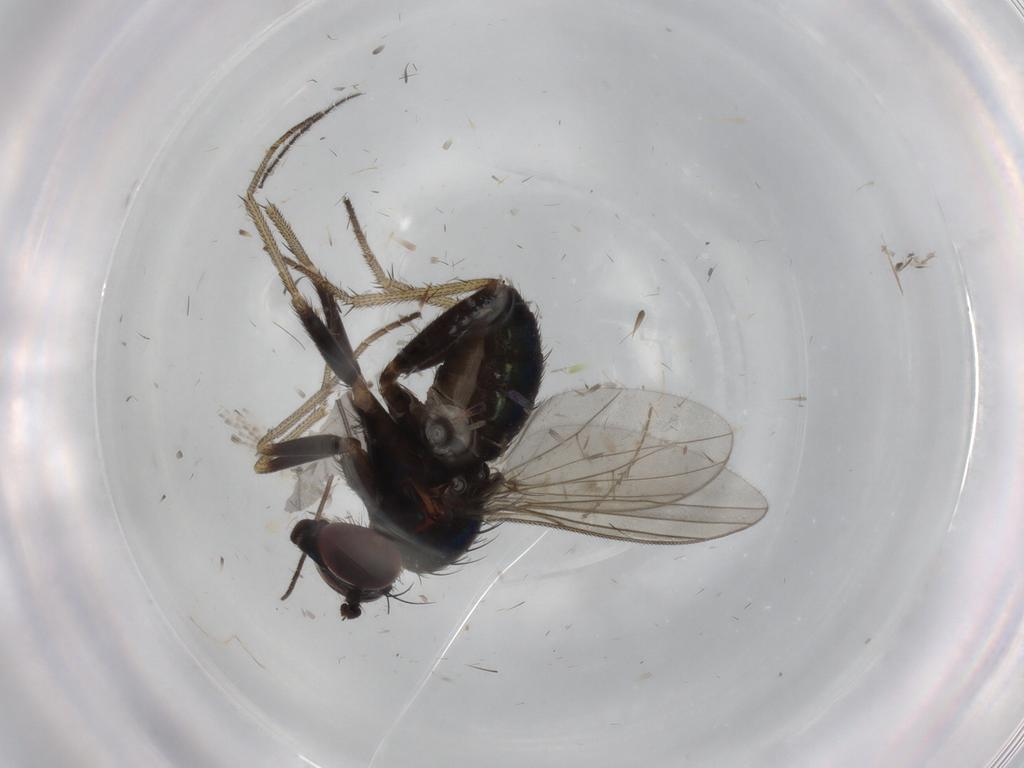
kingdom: Animalia
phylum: Arthropoda
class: Insecta
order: Diptera
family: Dolichopodidae
